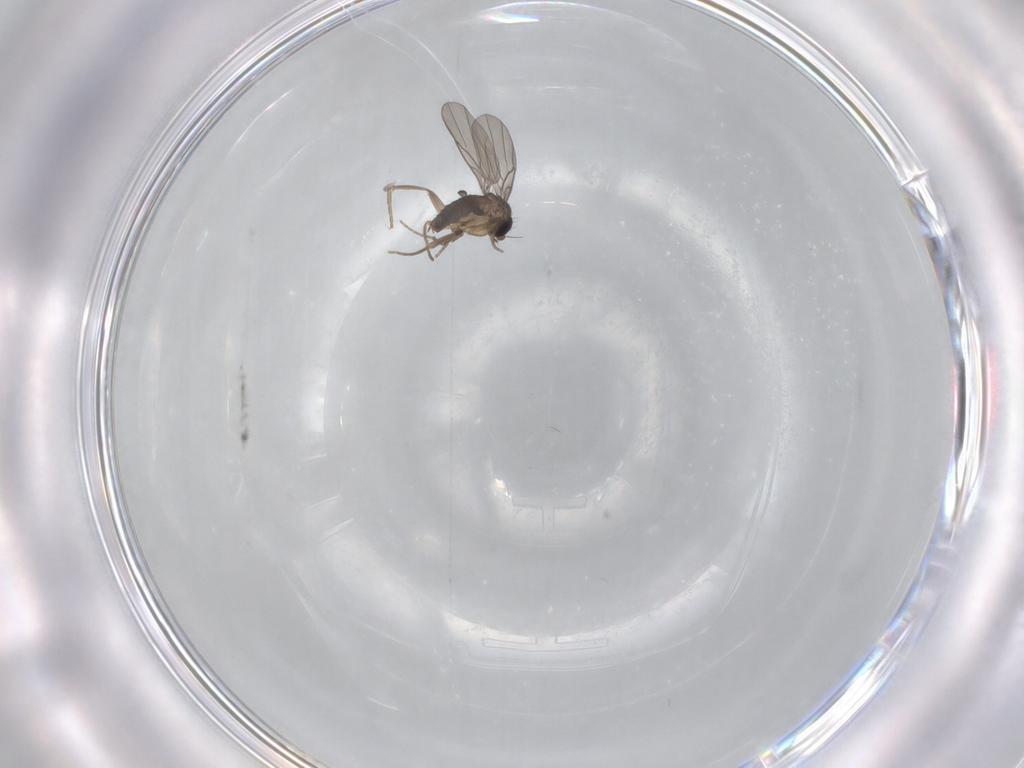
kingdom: Animalia
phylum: Arthropoda
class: Insecta
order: Diptera
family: Phoridae
